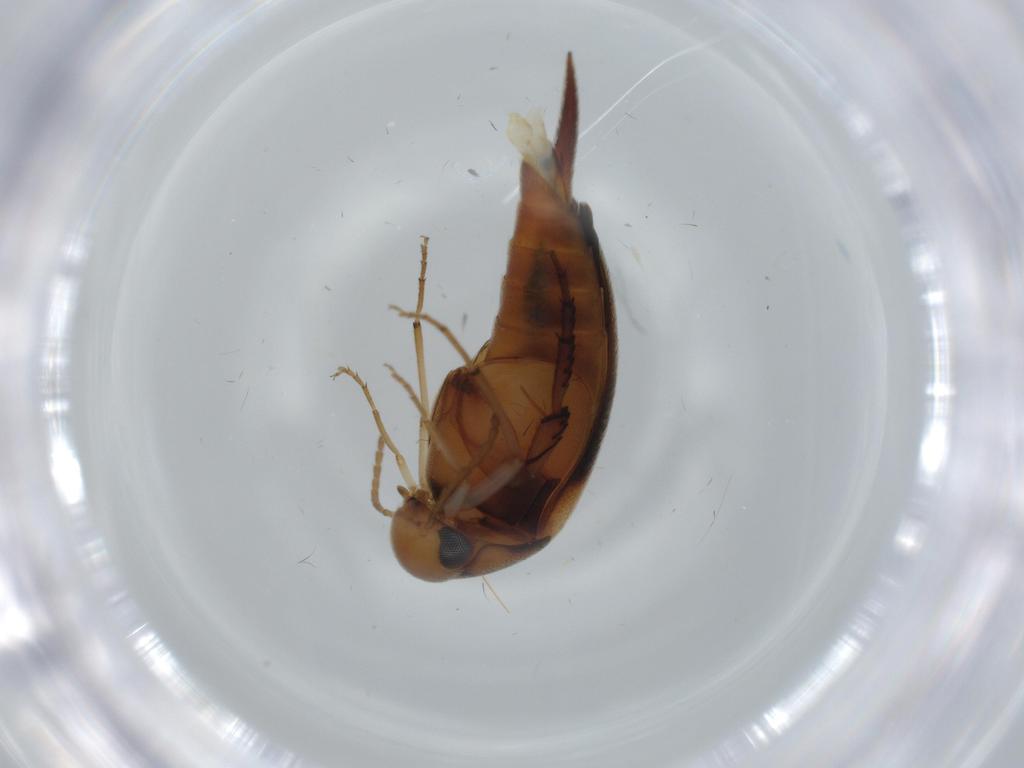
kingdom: Animalia
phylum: Arthropoda
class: Insecta
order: Coleoptera
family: Mordellidae
